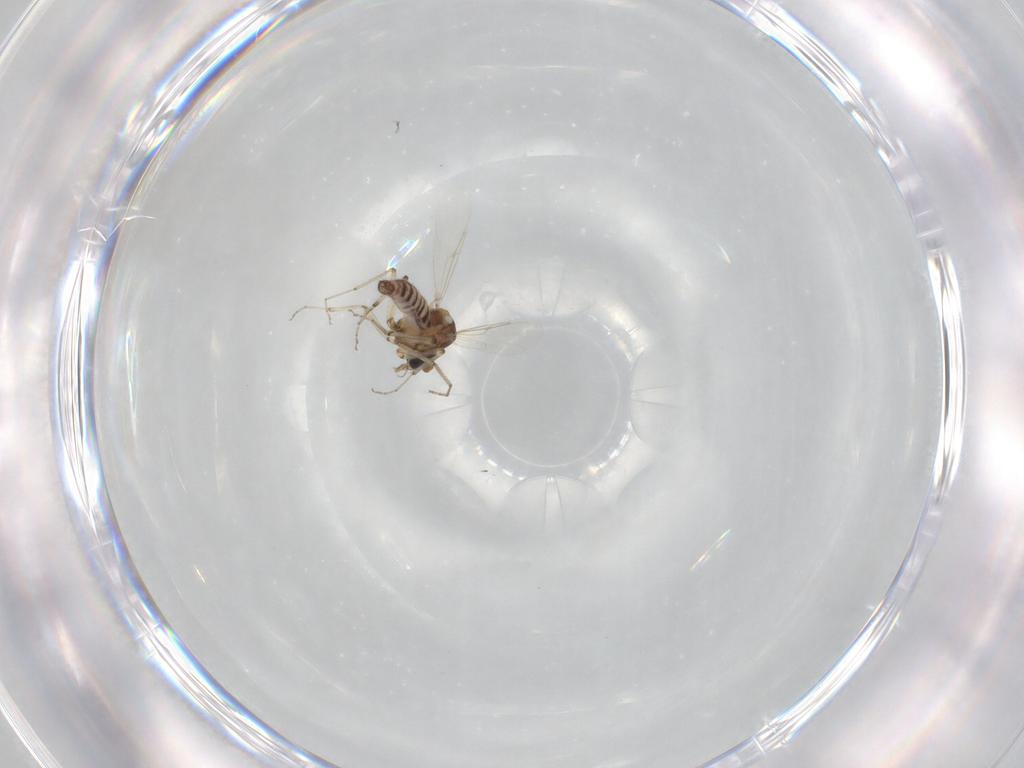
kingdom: Animalia
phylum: Arthropoda
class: Insecta
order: Diptera
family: Ceratopogonidae
